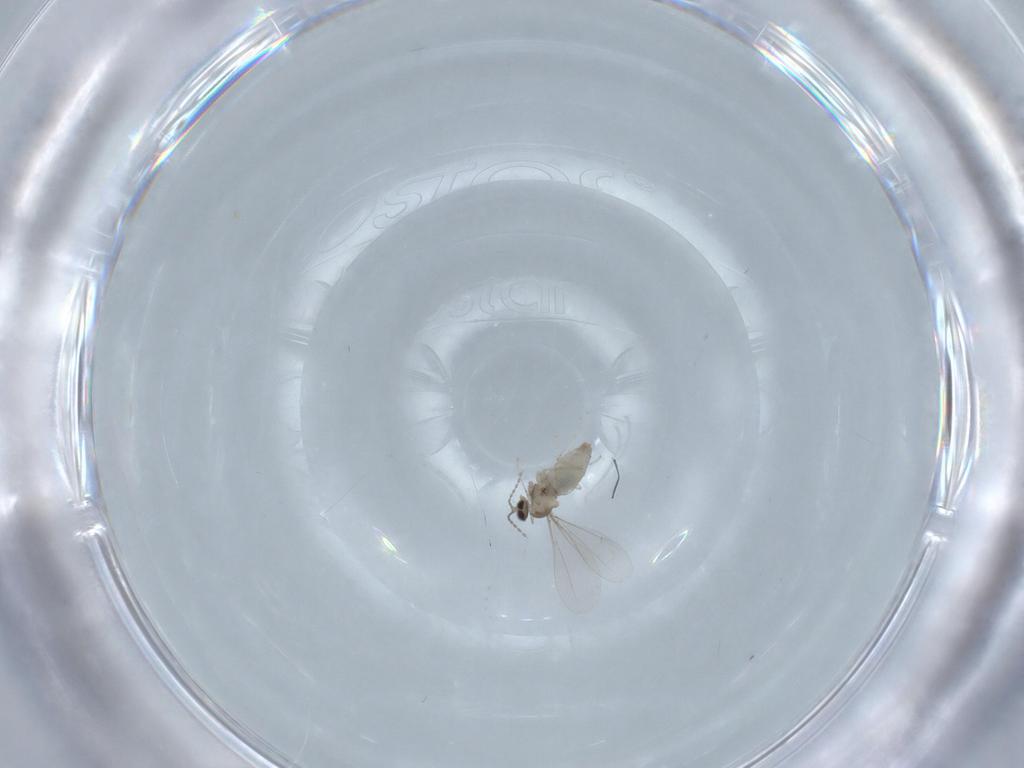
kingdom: Animalia
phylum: Arthropoda
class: Insecta
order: Diptera
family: Cecidomyiidae
